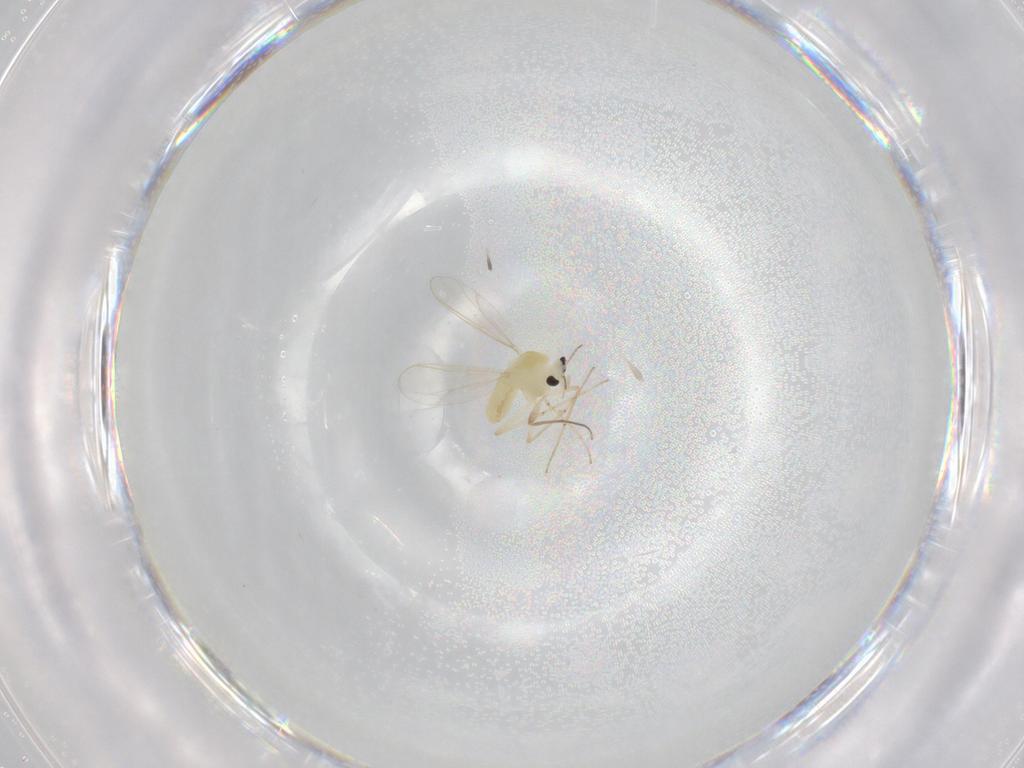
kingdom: Animalia
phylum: Arthropoda
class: Insecta
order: Diptera
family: Chironomidae
